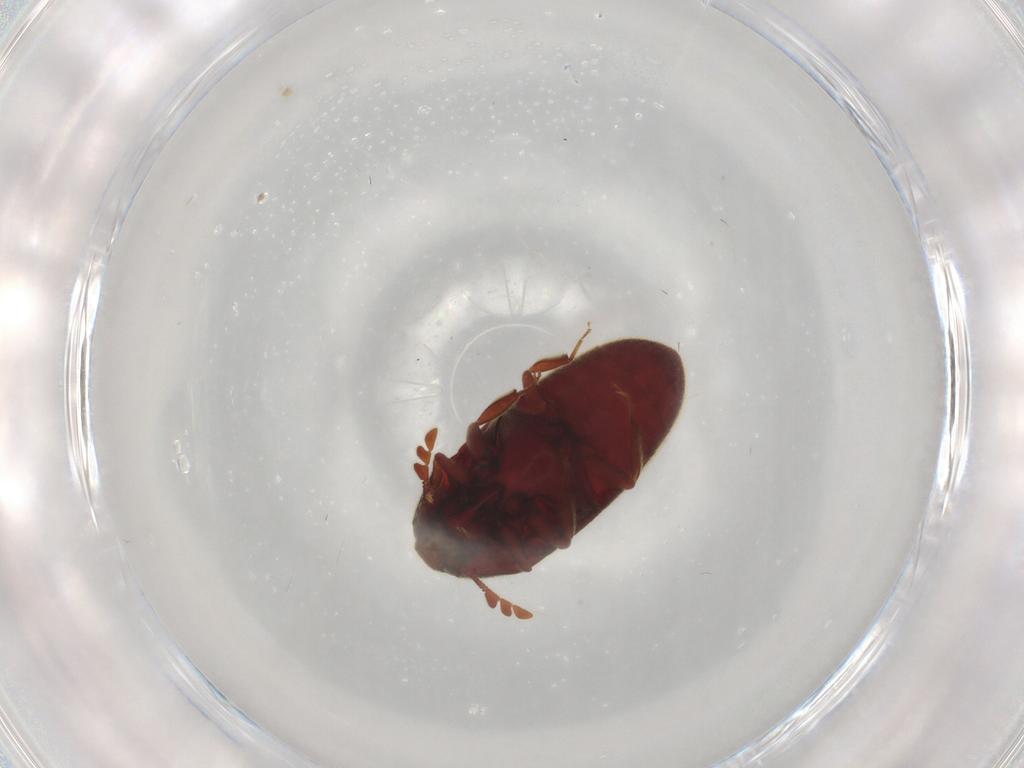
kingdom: Animalia
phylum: Arthropoda
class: Insecta
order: Coleoptera
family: Throscidae
